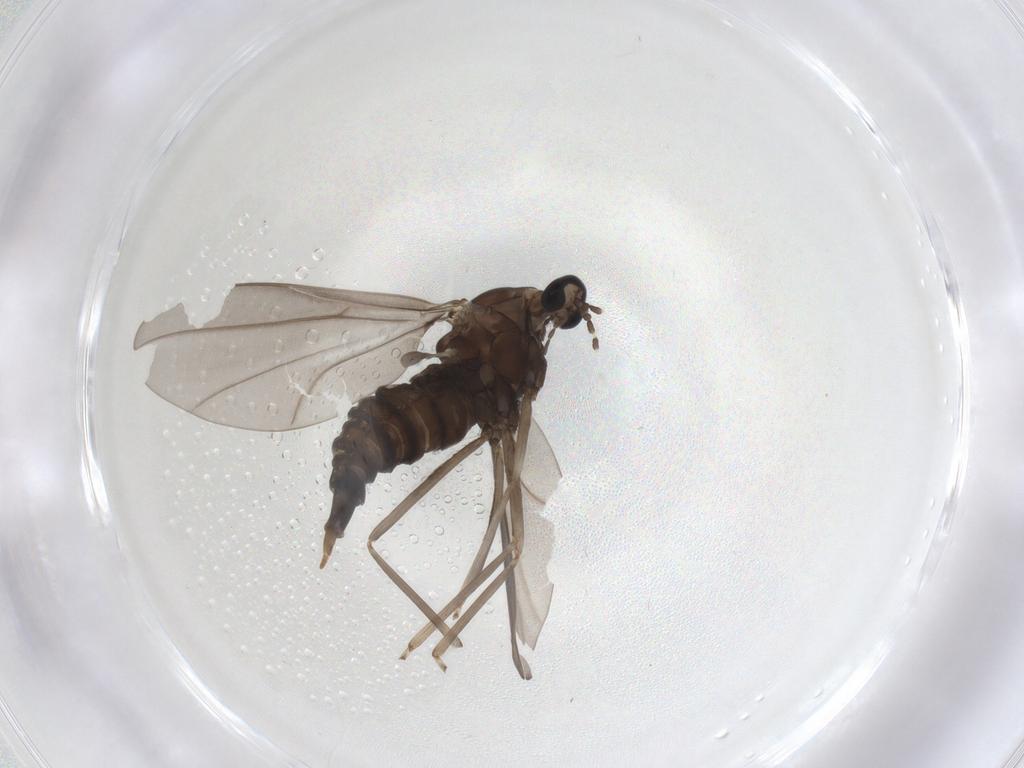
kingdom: Animalia
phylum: Arthropoda
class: Insecta
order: Diptera
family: Cecidomyiidae
